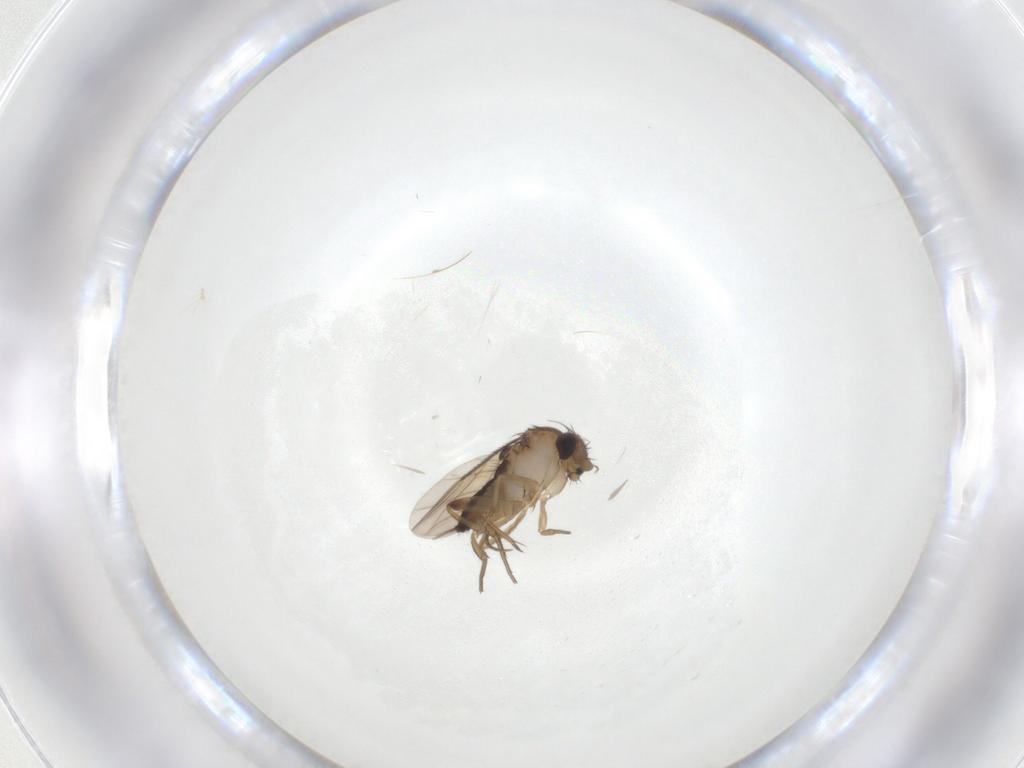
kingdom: Animalia
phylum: Arthropoda
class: Insecta
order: Diptera
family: Phoridae
